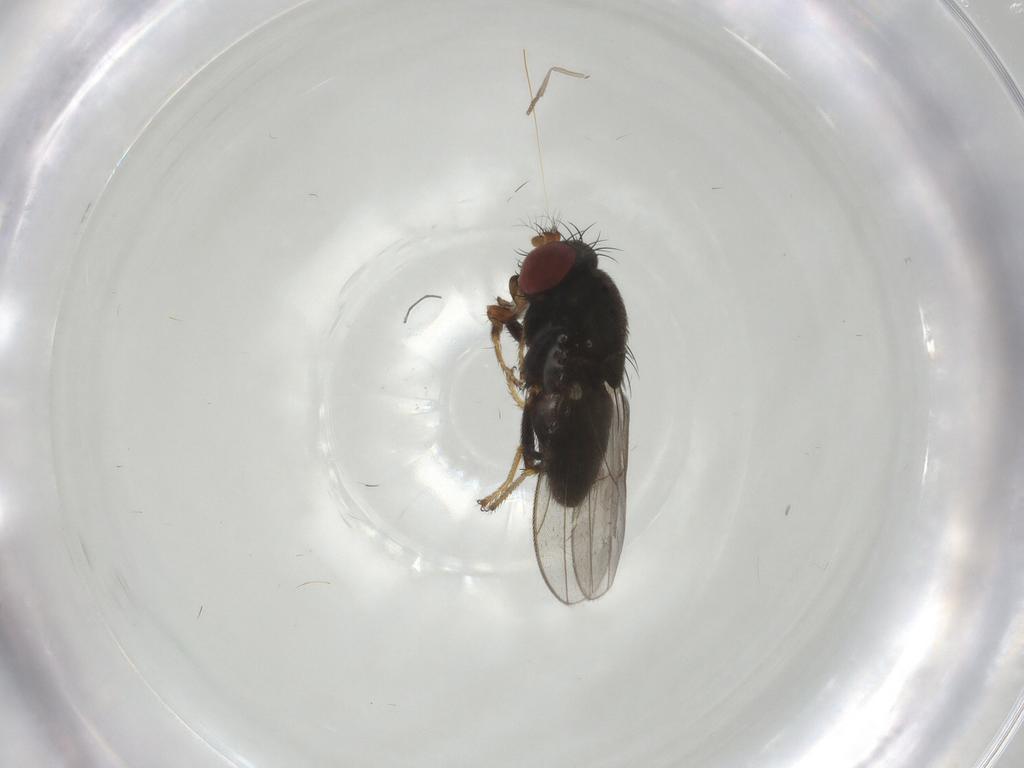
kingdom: Animalia
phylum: Arthropoda
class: Insecta
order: Diptera
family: Psychodidae
